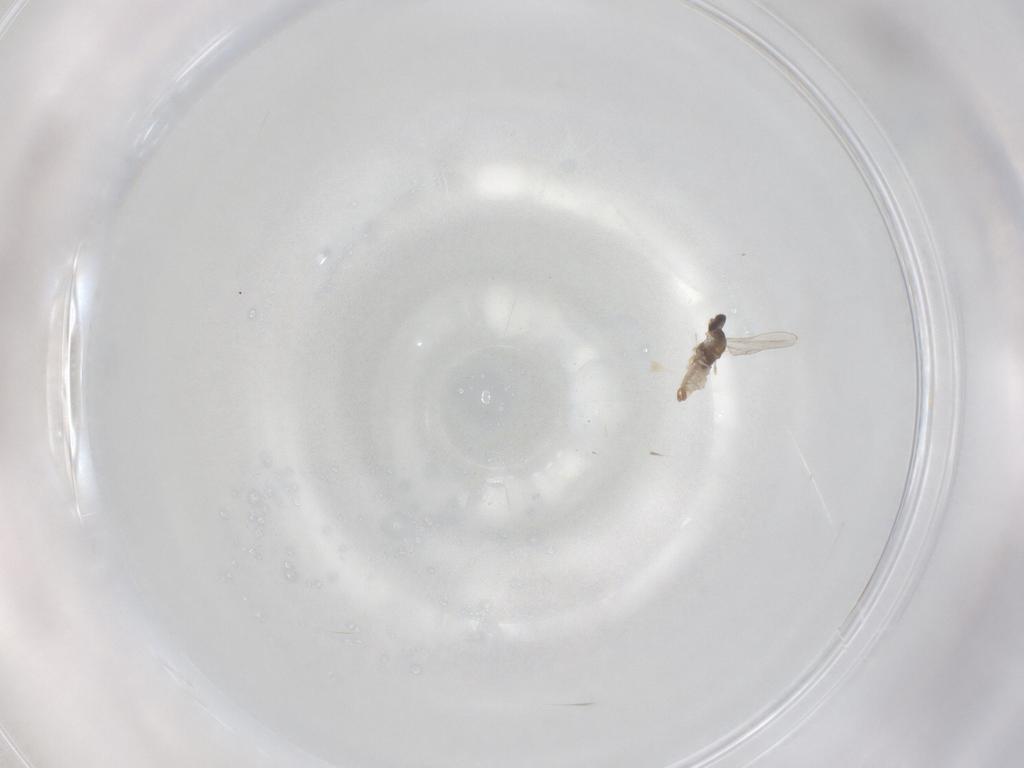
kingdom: Animalia
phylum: Arthropoda
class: Insecta
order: Diptera
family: Cecidomyiidae
